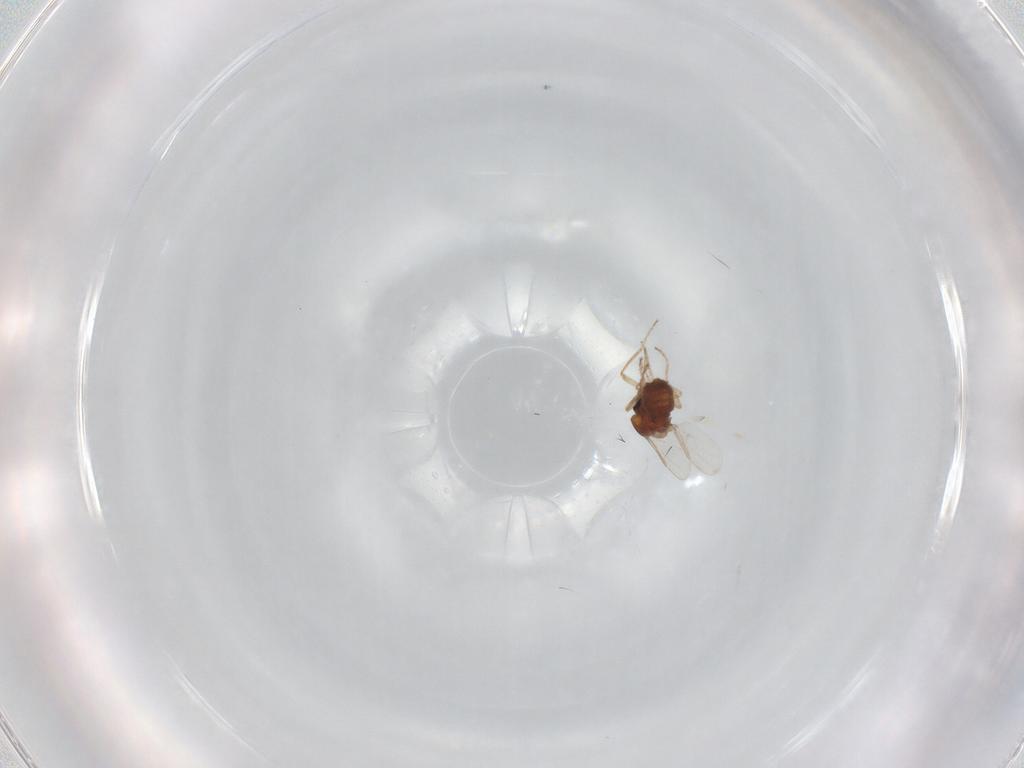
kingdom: Animalia
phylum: Arthropoda
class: Insecta
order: Diptera
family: Ceratopogonidae
